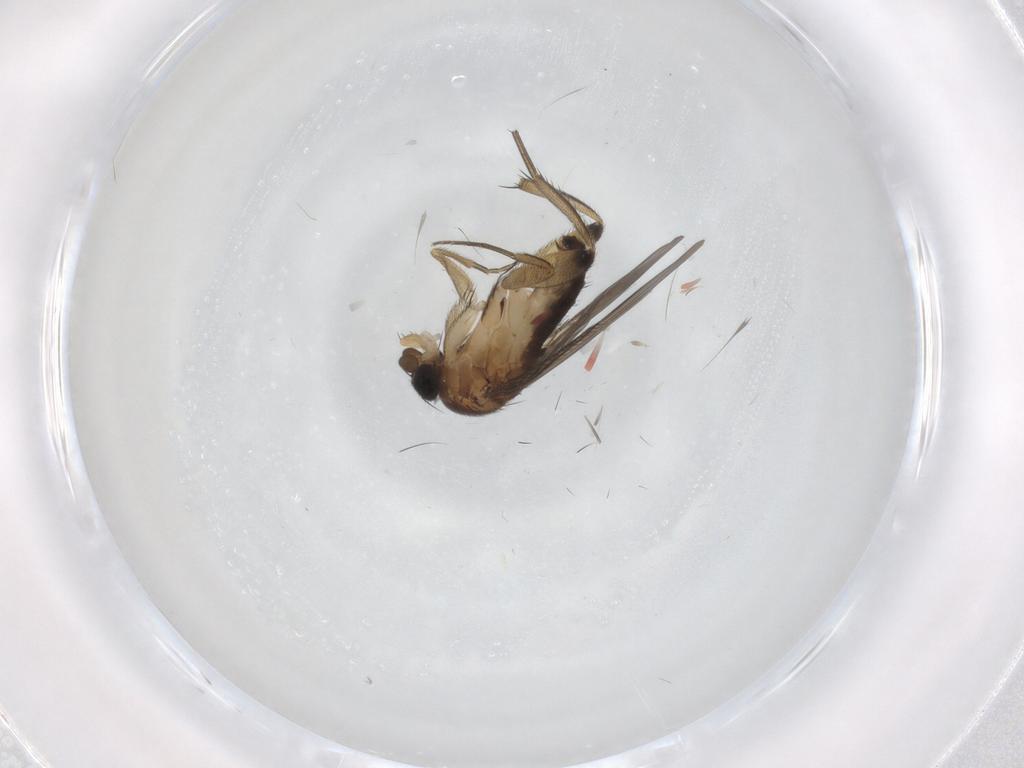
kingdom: Animalia
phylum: Arthropoda
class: Insecta
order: Diptera
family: Phoridae
